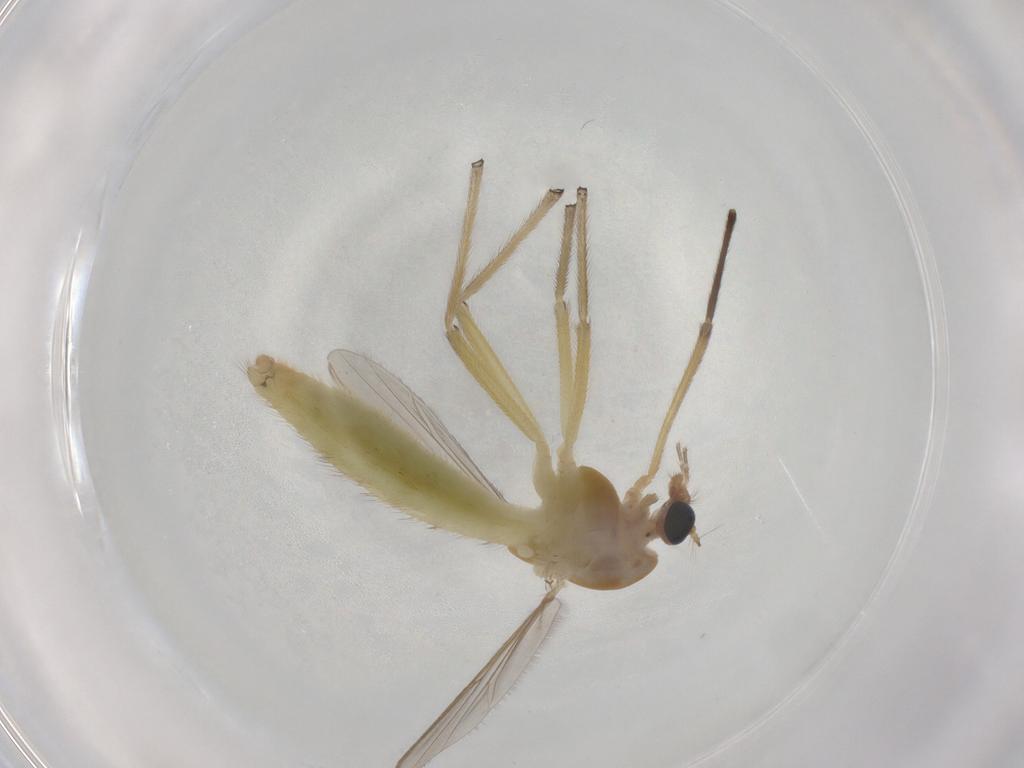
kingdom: Animalia
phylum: Arthropoda
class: Insecta
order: Diptera
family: Chironomidae
